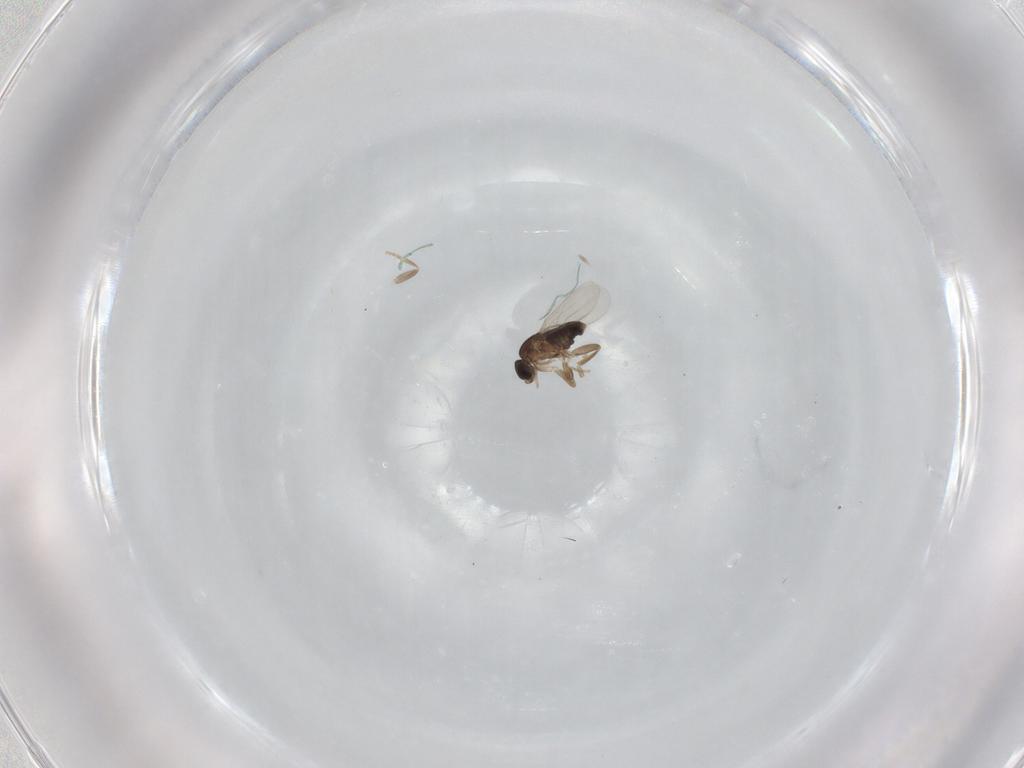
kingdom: Animalia
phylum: Arthropoda
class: Insecta
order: Diptera
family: Phoridae
